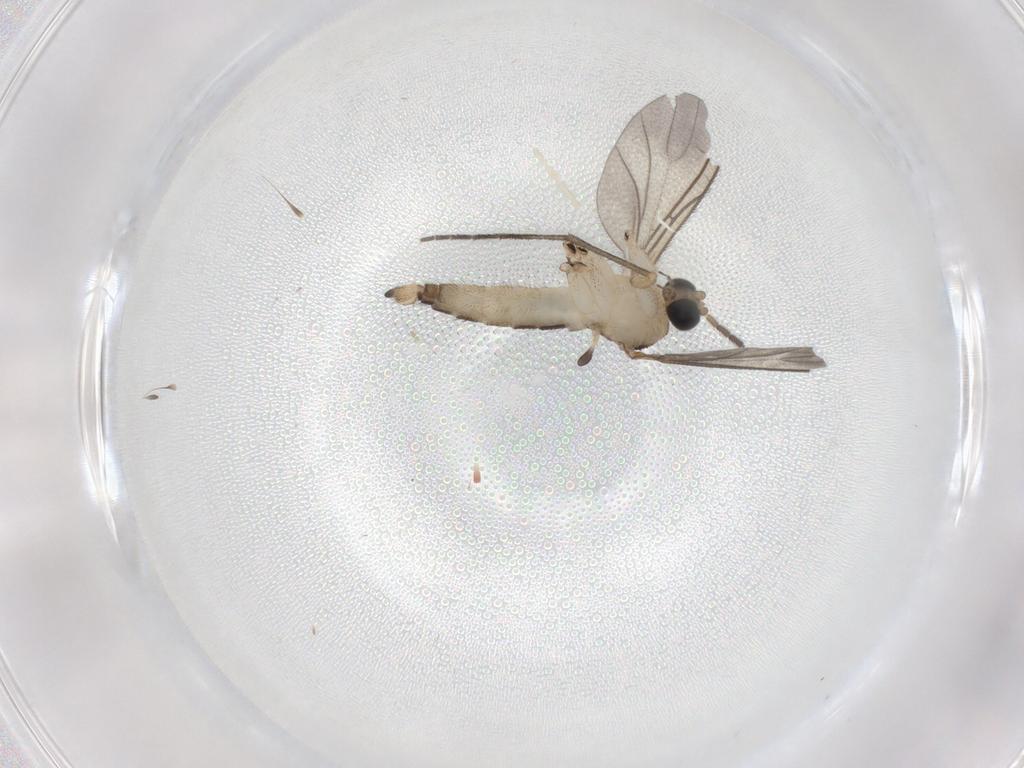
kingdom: Animalia
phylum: Arthropoda
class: Insecta
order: Diptera
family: Sciaridae
